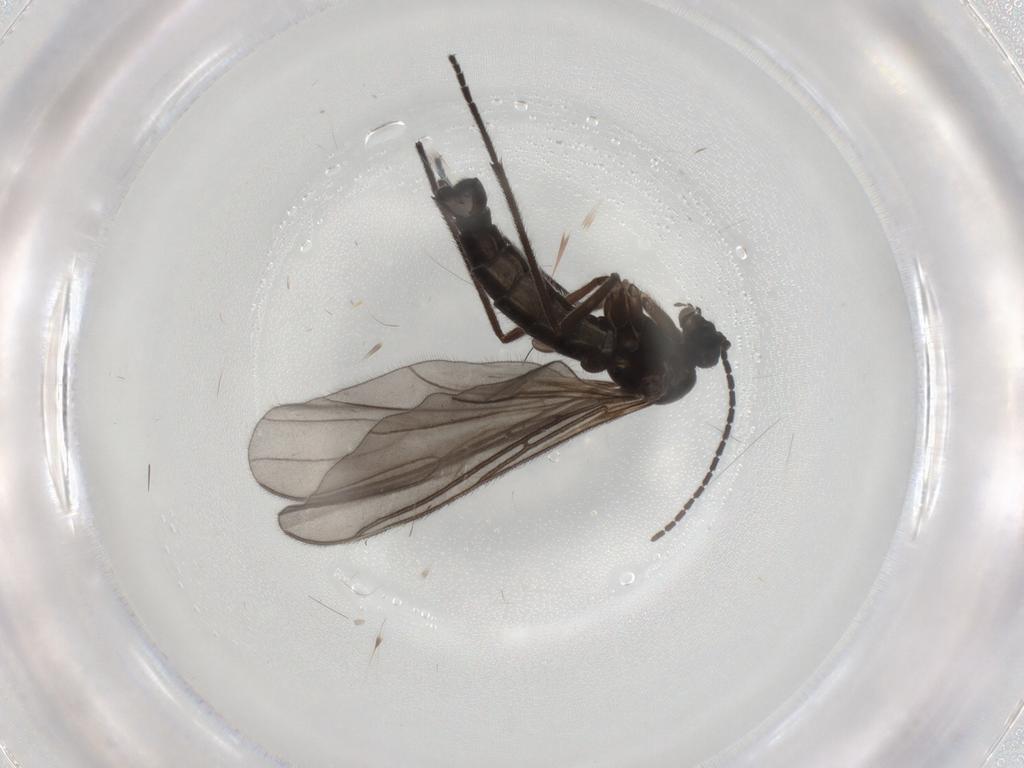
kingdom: Animalia
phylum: Arthropoda
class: Insecta
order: Diptera
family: Sciaridae
